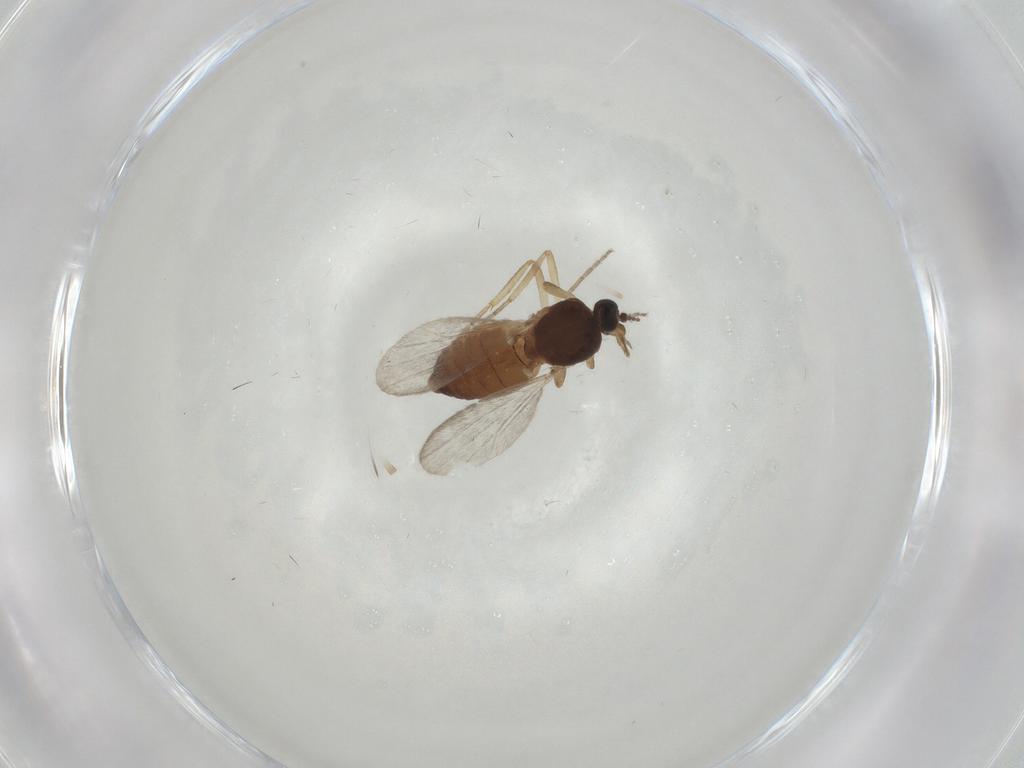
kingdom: Animalia
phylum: Arthropoda
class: Insecta
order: Diptera
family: Ceratopogonidae
